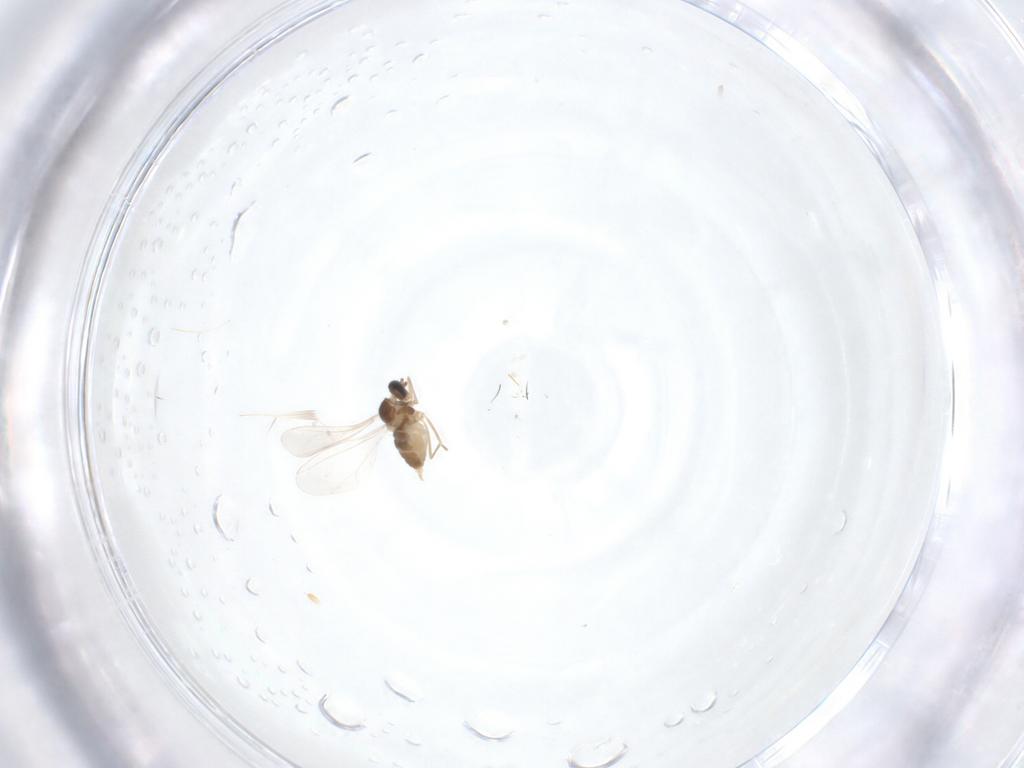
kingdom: Animalia
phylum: Arthropoda
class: Insecta
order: Diptera
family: Cecidomyiidae
